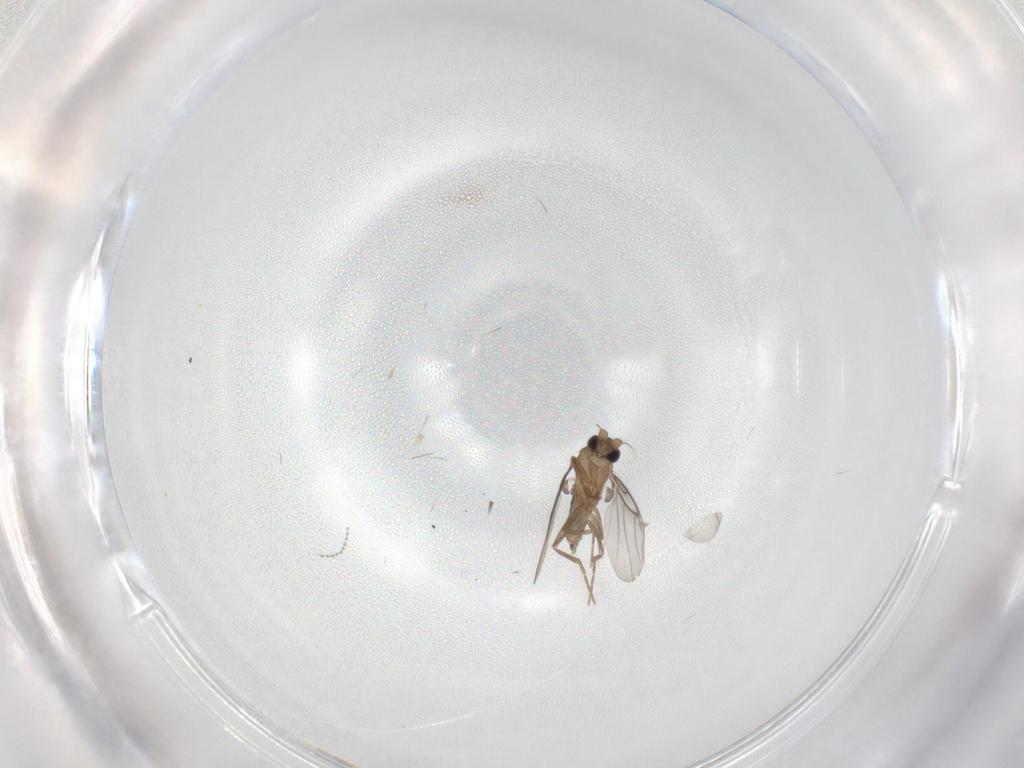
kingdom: Animalia
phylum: Arthropoda
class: Insecta
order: Diptera
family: Cecidomyiidae
